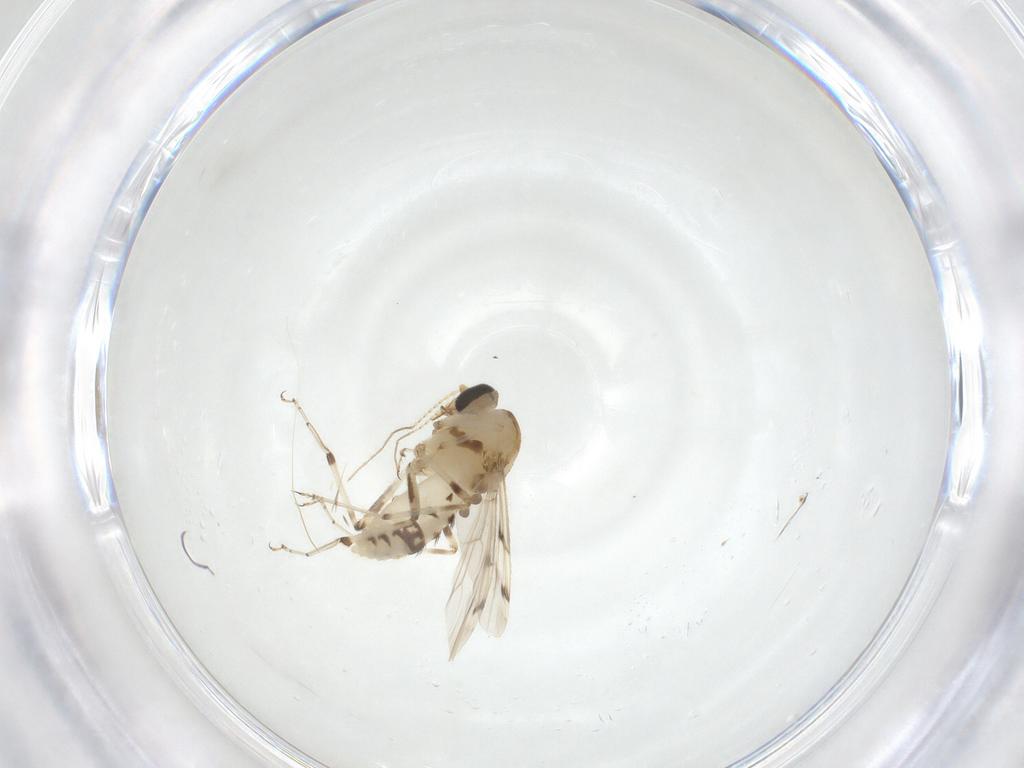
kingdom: Animalia
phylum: Arthropoda
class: Insecta
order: Diptera
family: Ceratopogonidae
